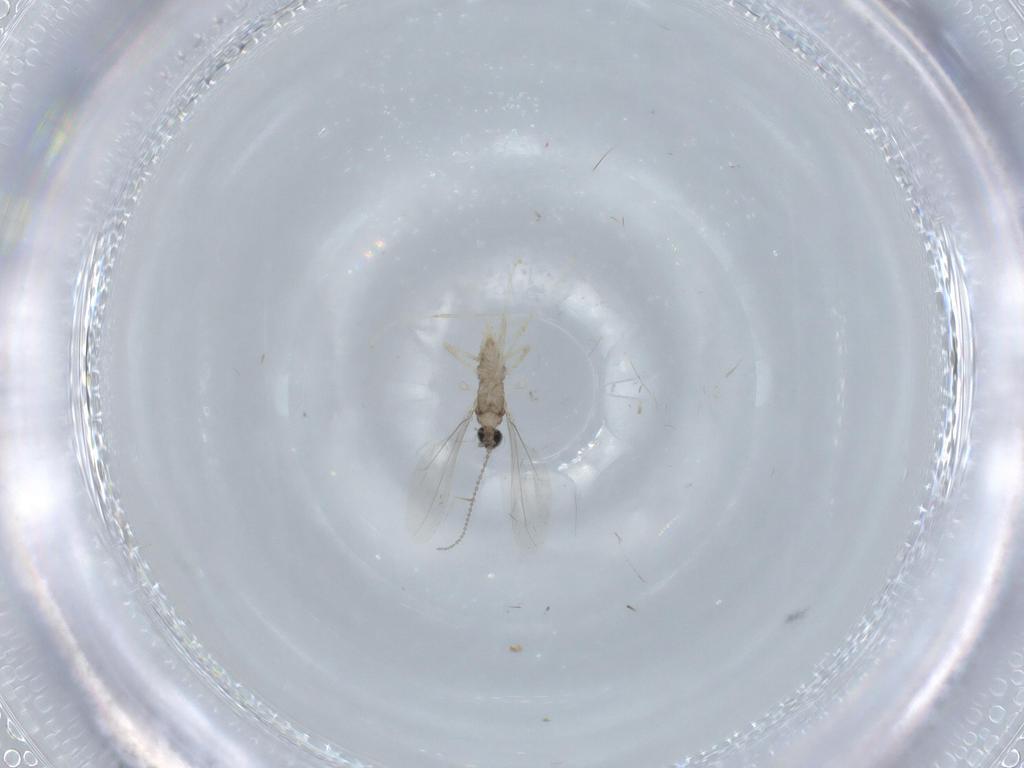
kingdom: Animalia
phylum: Arthropoda
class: Insecta
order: Diptera
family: Cecidomyiidae
